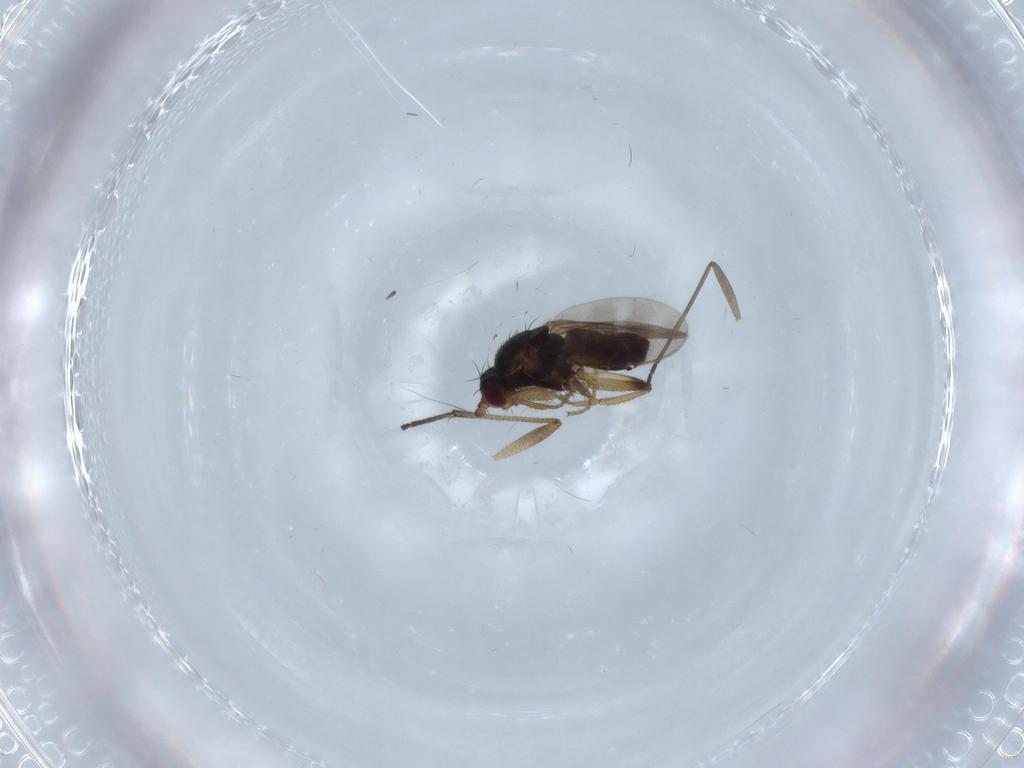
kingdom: Animalia
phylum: Arthropoda
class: Insecta
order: Diptera
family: Sphaeroceridae
